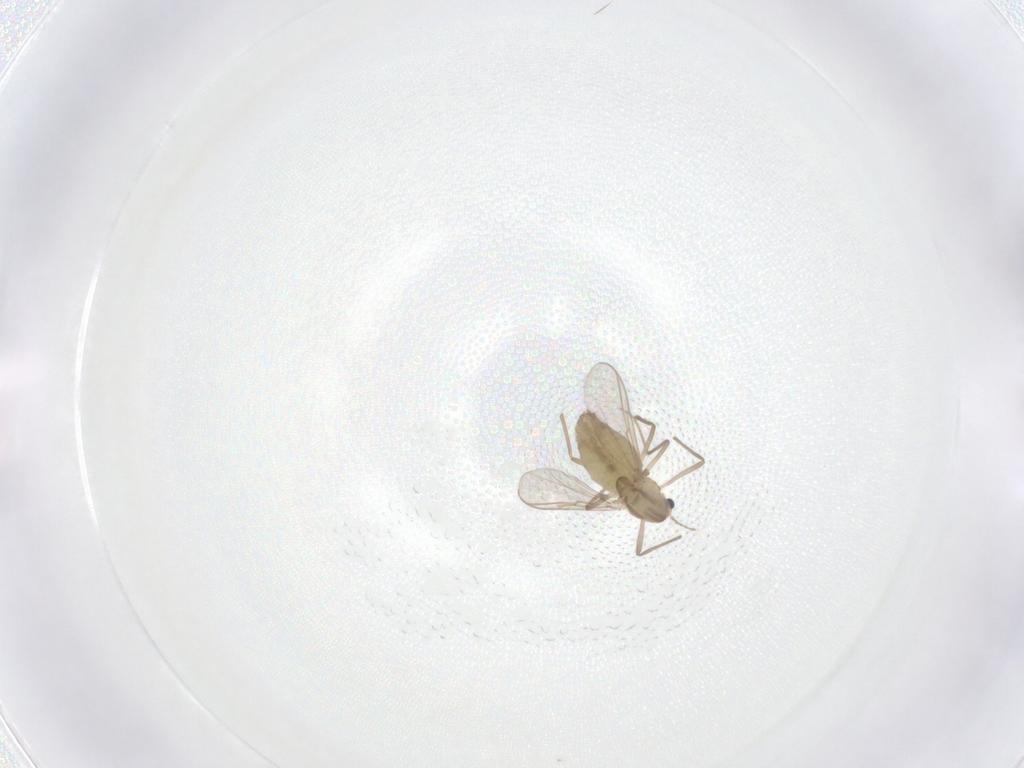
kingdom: Animalia
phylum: Arthropoda
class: Insecta
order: Diptera
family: Chironomidae
